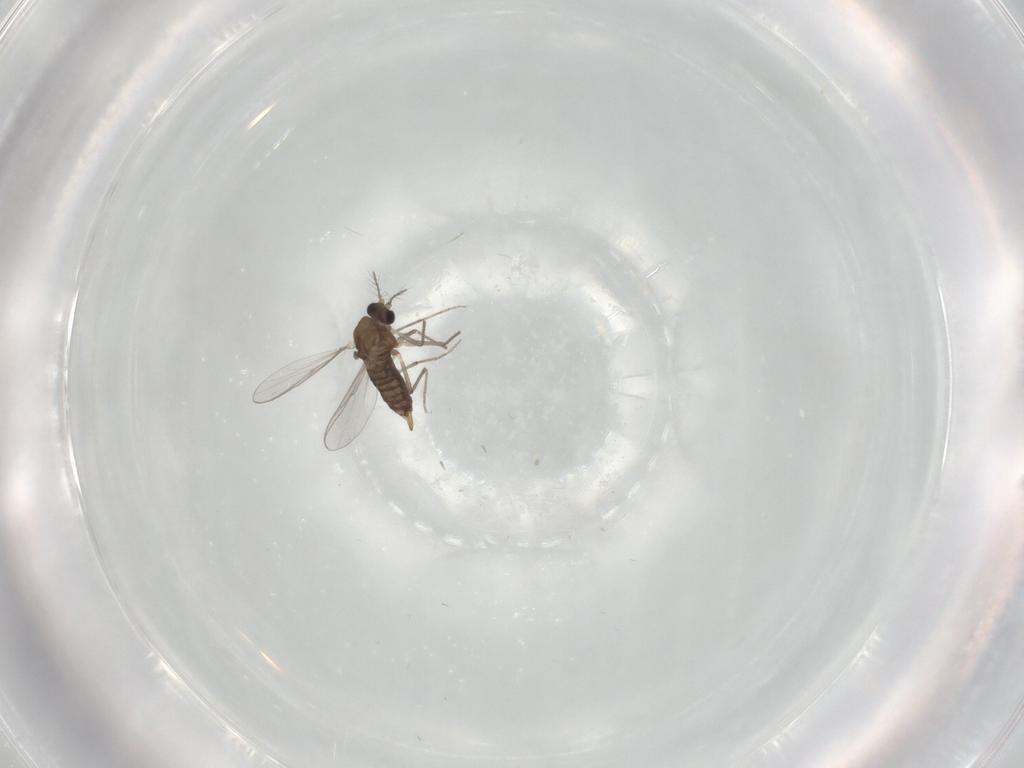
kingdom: Animalia
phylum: Arthropoda
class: Insecta
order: Diptera
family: Chironomidae
